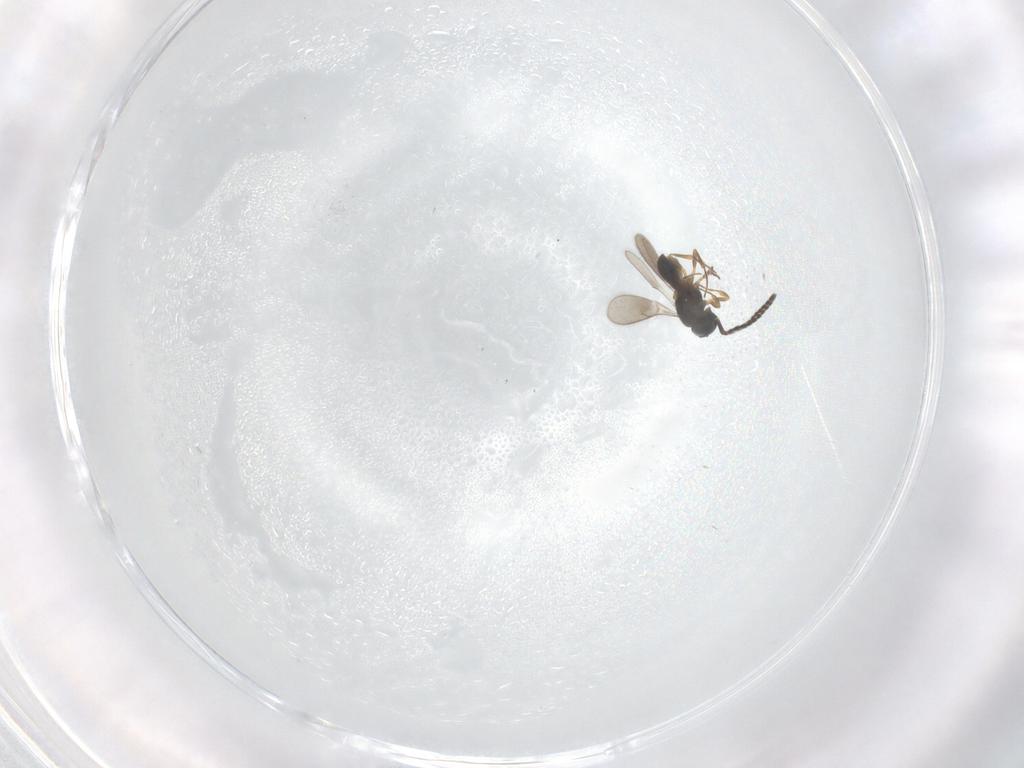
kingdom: Animalia
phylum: Arthropoda
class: Insecta
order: Hymenoptera
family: Scelionidae
